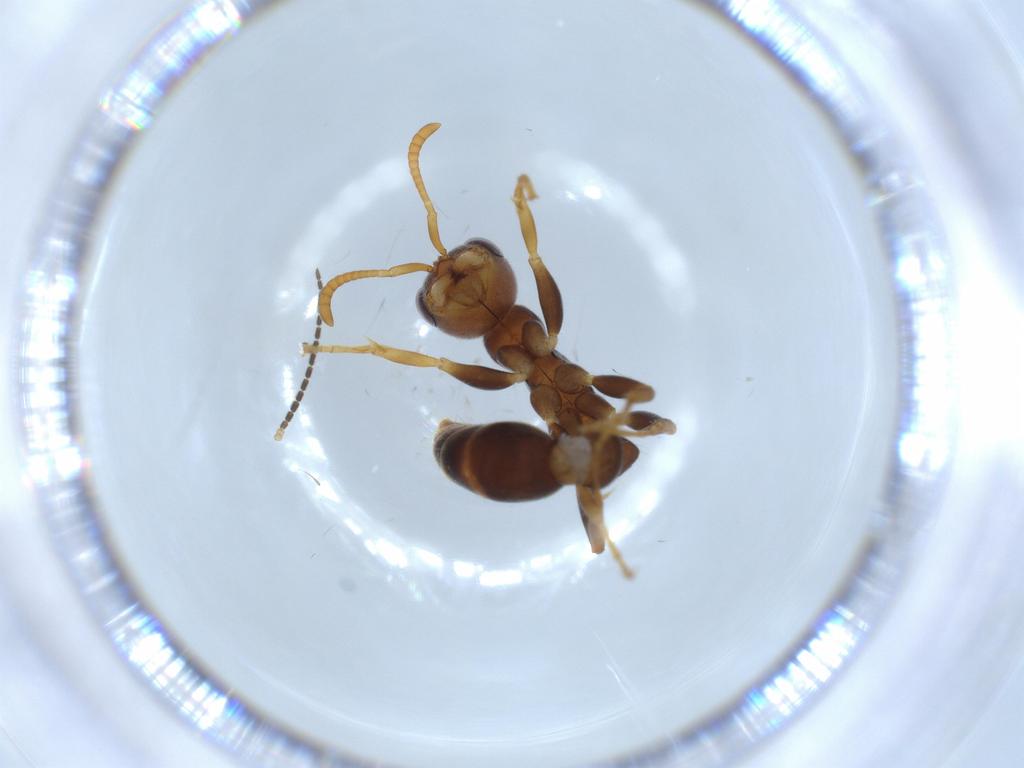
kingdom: Animalia
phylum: Arthropoda
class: Insecta
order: Hymenoptera
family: Formicidae
